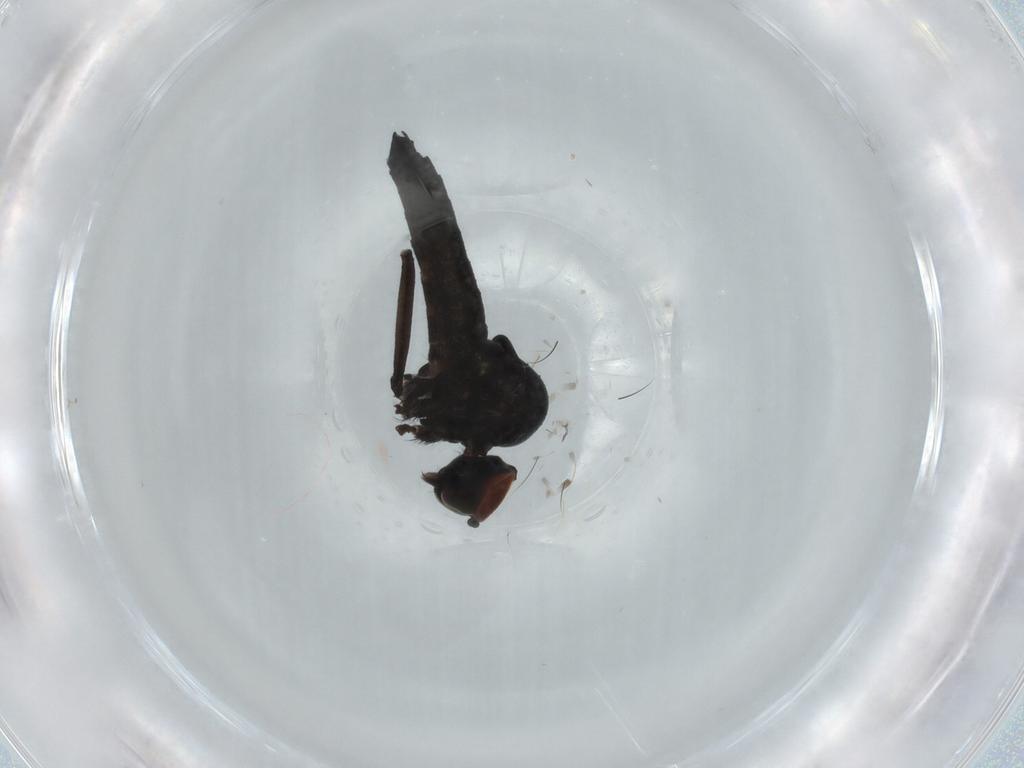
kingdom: Animalia
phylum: Arthropoda
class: Insecta
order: Diptera
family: Hybotidae
